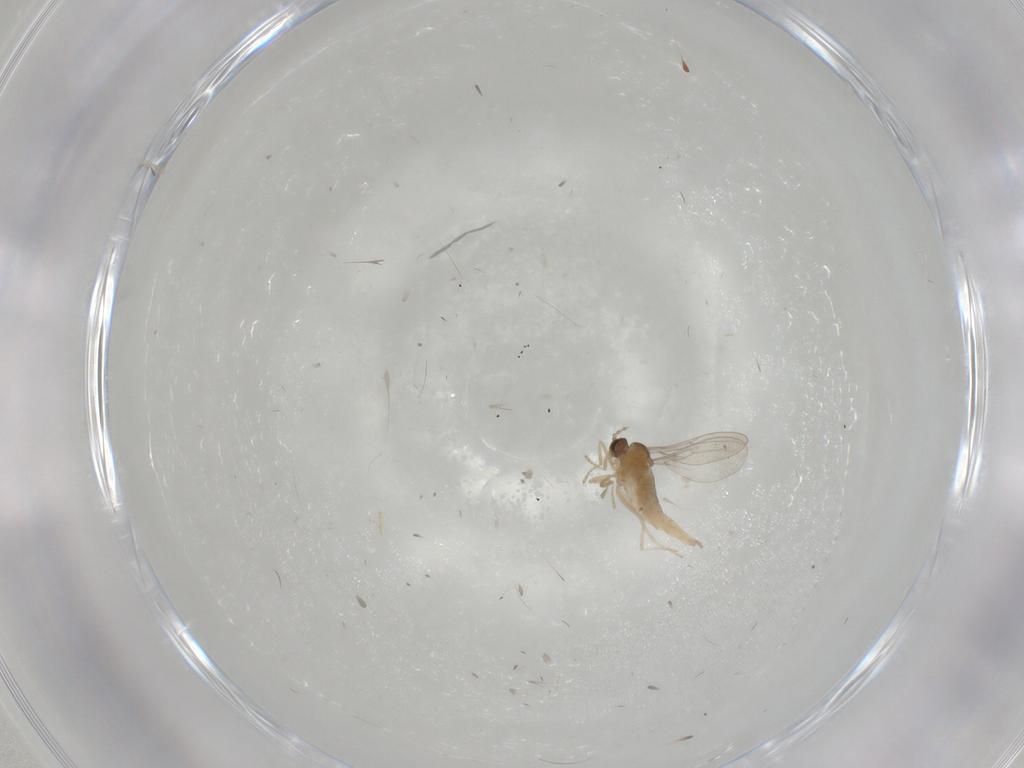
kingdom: Animalia
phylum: Arthropoda
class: Insecta
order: Diptera
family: Cecidomyiidae
